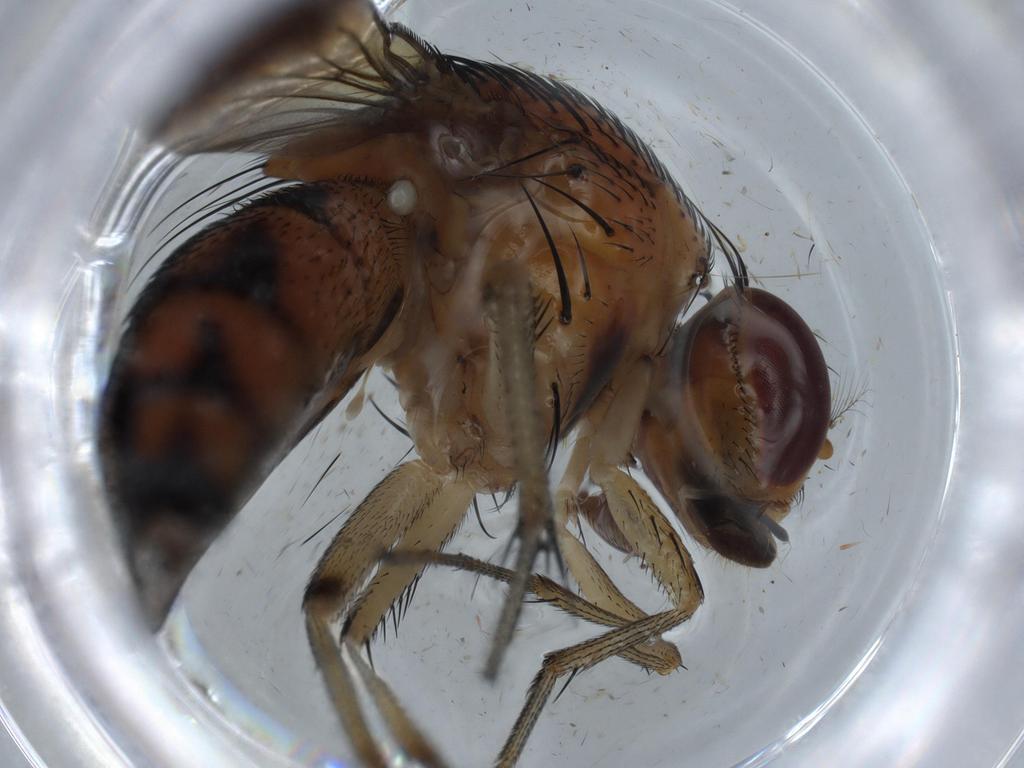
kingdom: Animalia
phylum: Arthropoda
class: Insecta
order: Diptera
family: Chironomidae
